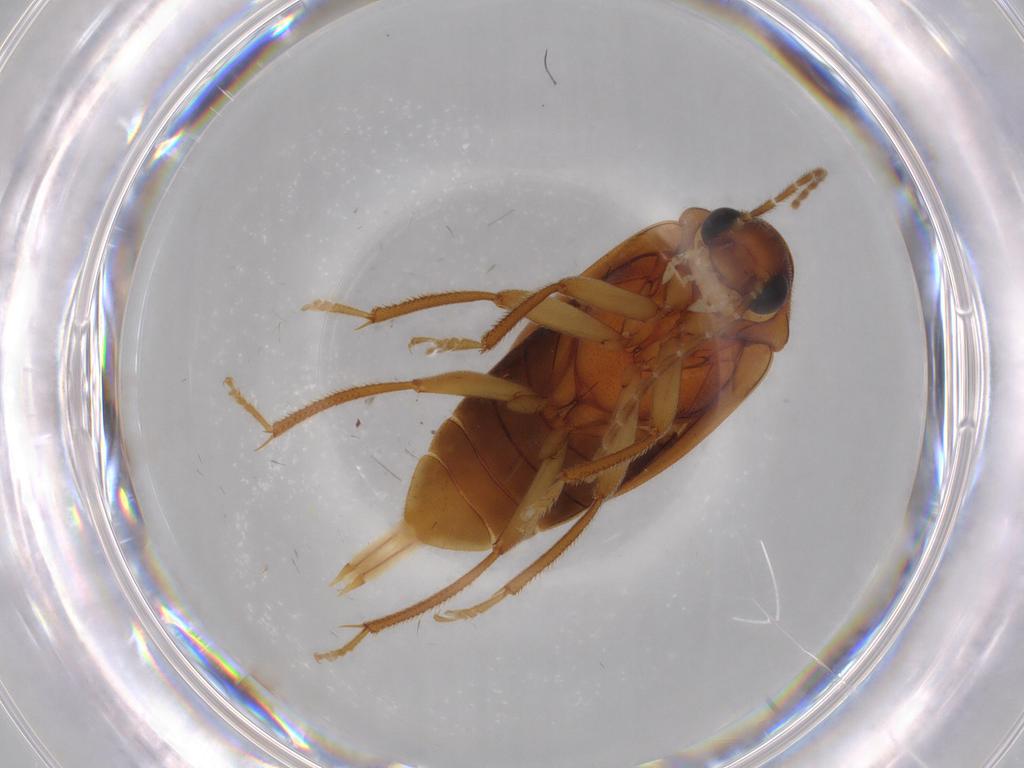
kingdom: Animalia
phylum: Arthropoda
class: Insecta
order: Coleoptera
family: Ptilodactylidae
